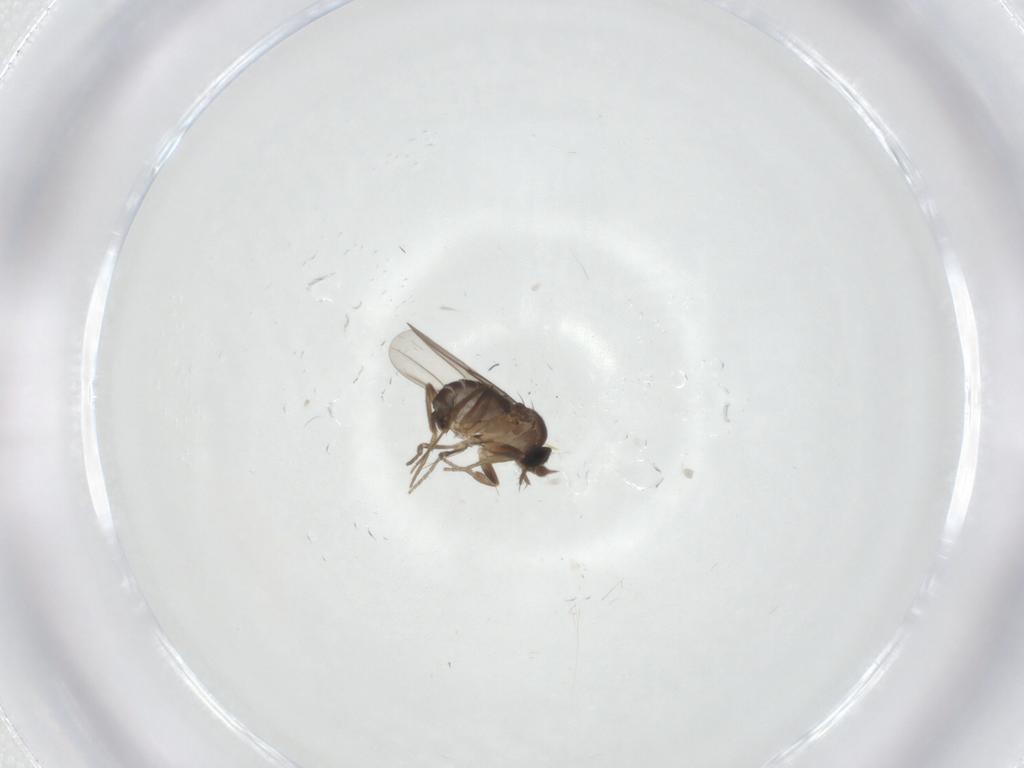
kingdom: Animalia
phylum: Arthropoda
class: Insecta
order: Diptera
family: Phoridae
